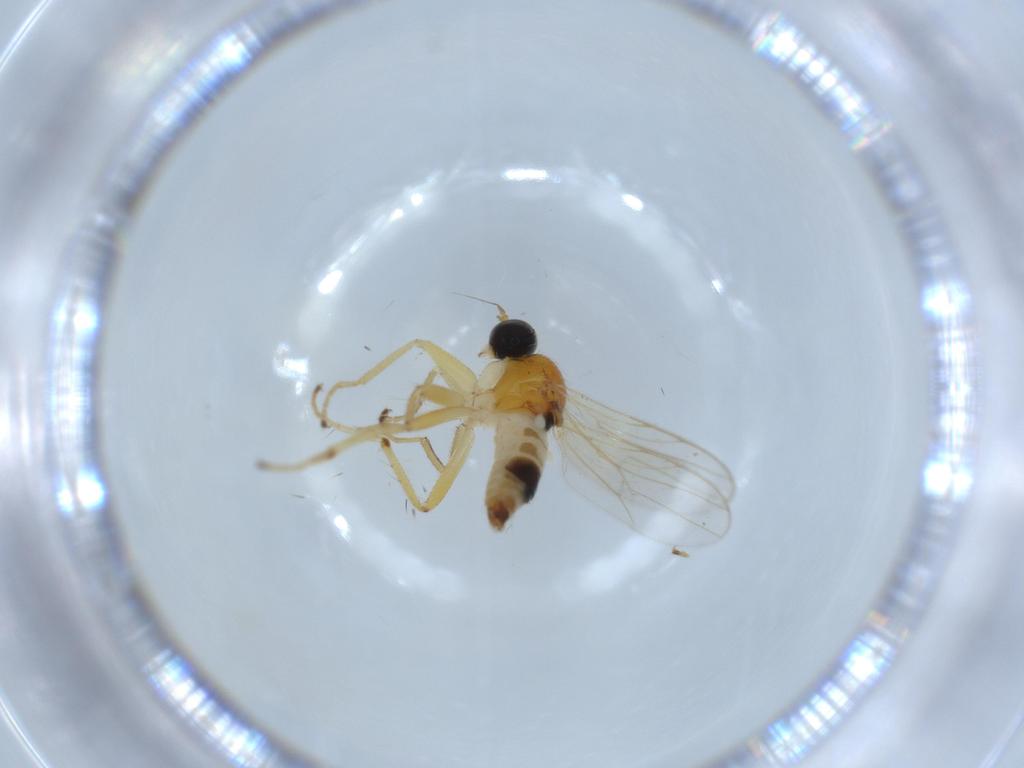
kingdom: Animalia
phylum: Arthropoda
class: Insecta
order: Diptera
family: Hybotidae
